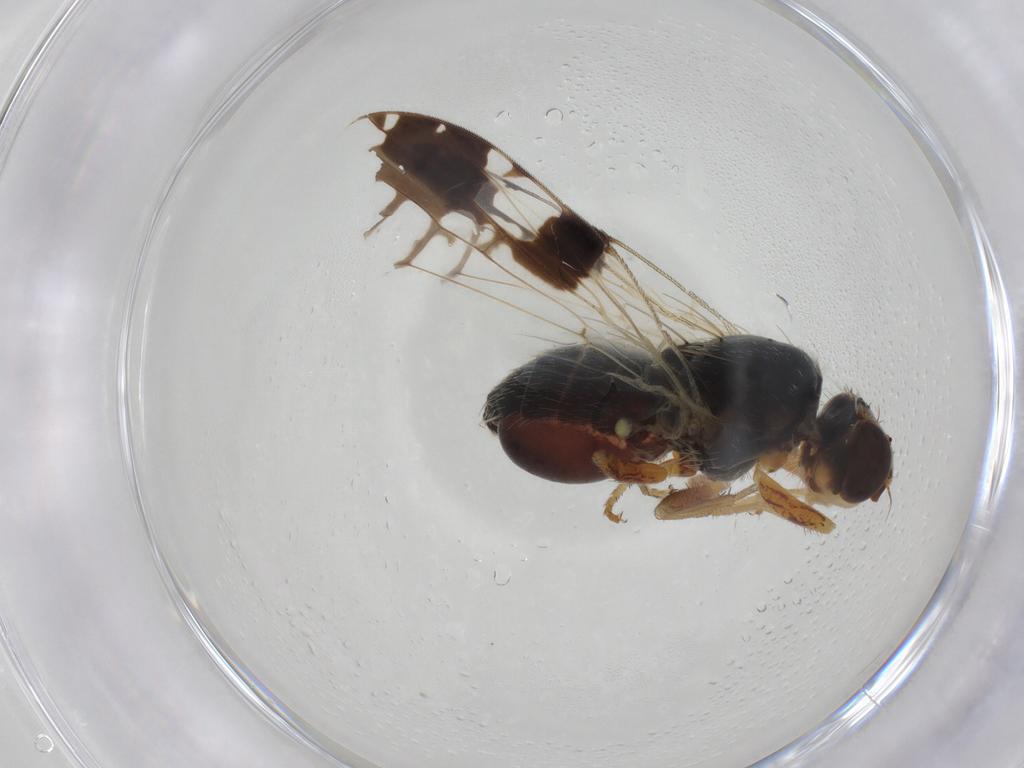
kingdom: Animalia
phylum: Arthropoda
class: Insecta
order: Diptera
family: Tephritidae
